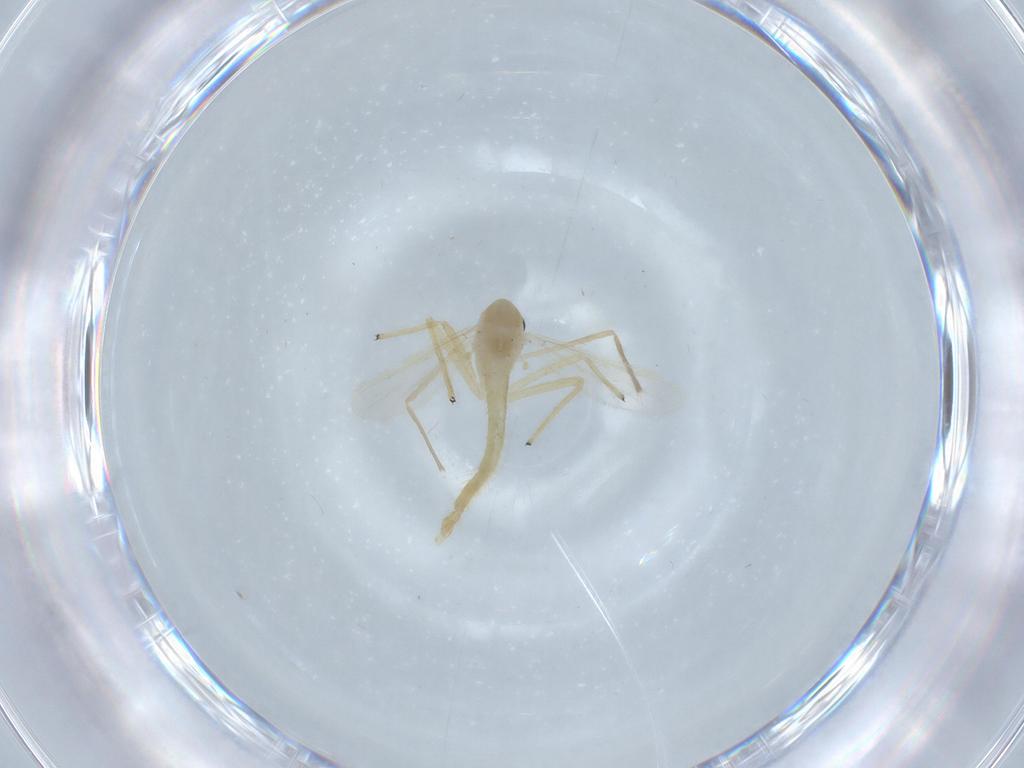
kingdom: Animalia
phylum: Arthropoda
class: Insecta
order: Diptera
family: Chironomidae
